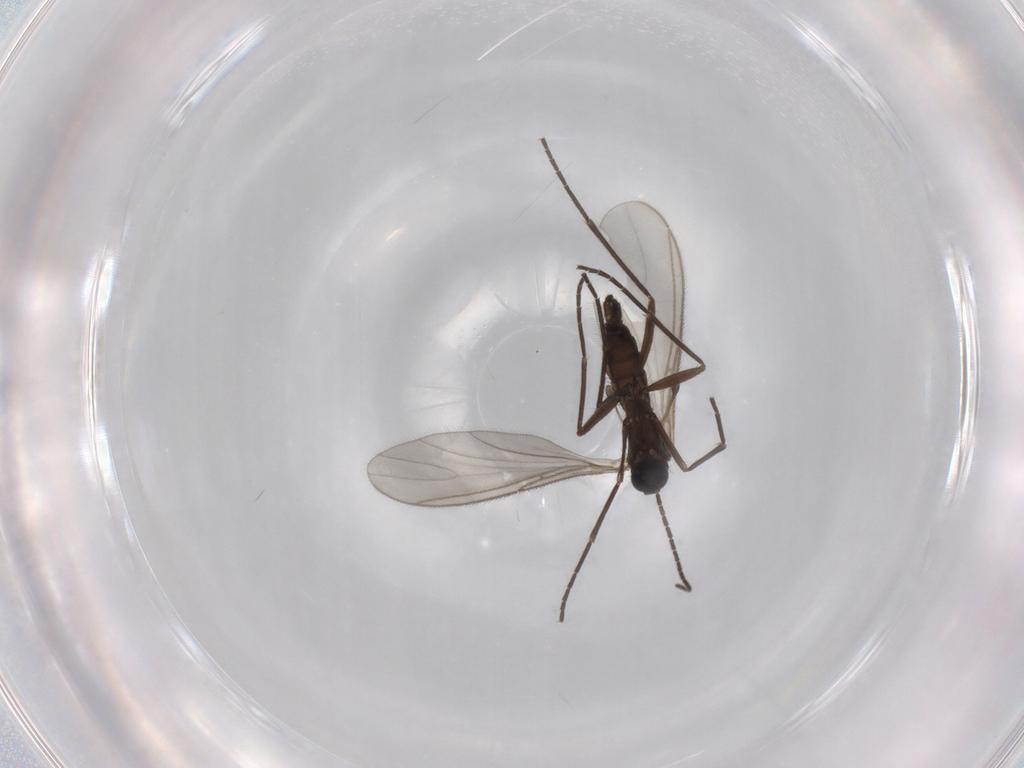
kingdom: Animalia
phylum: Arthropoda
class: Insecta
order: Diptera
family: Sciaridae
